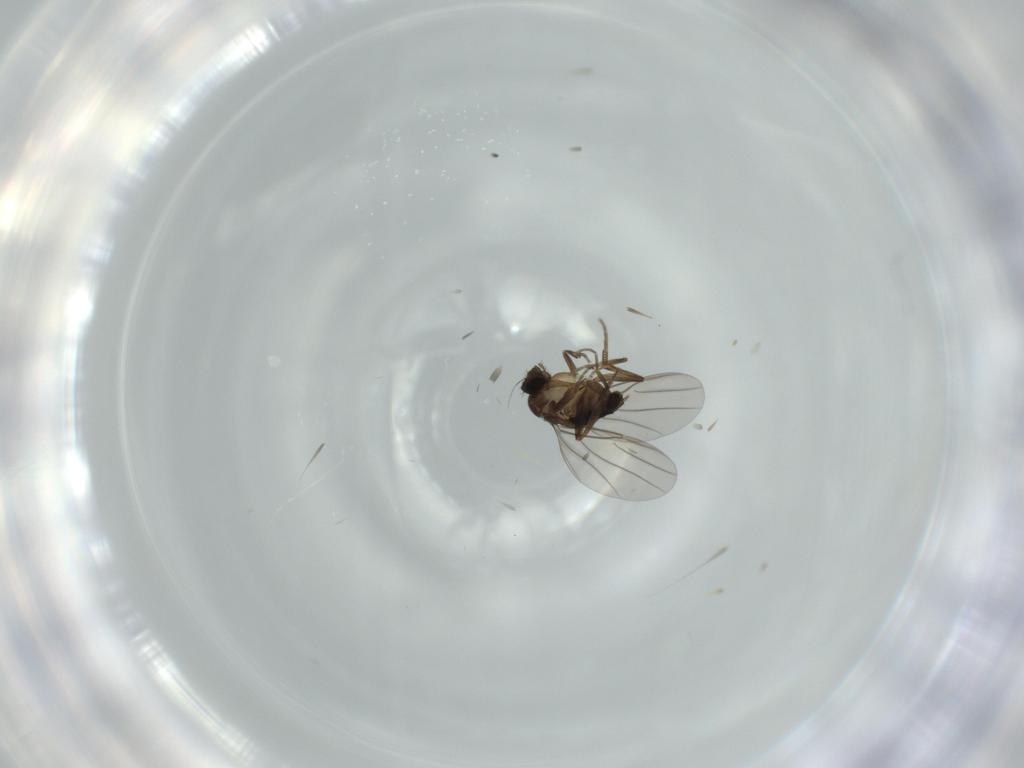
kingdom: Animalia
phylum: Arthropoda
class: Insecta
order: Diptera
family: Phoridae
